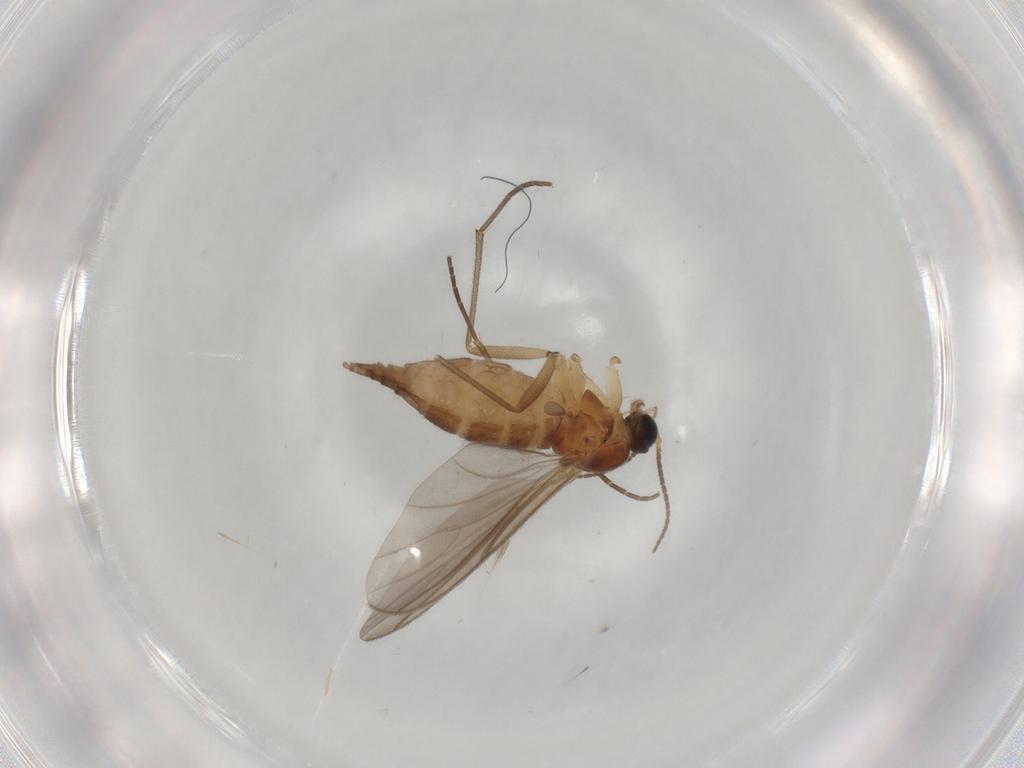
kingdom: Animalia
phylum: Arthropoda
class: Insecta
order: Diptera
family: Sciaridae
